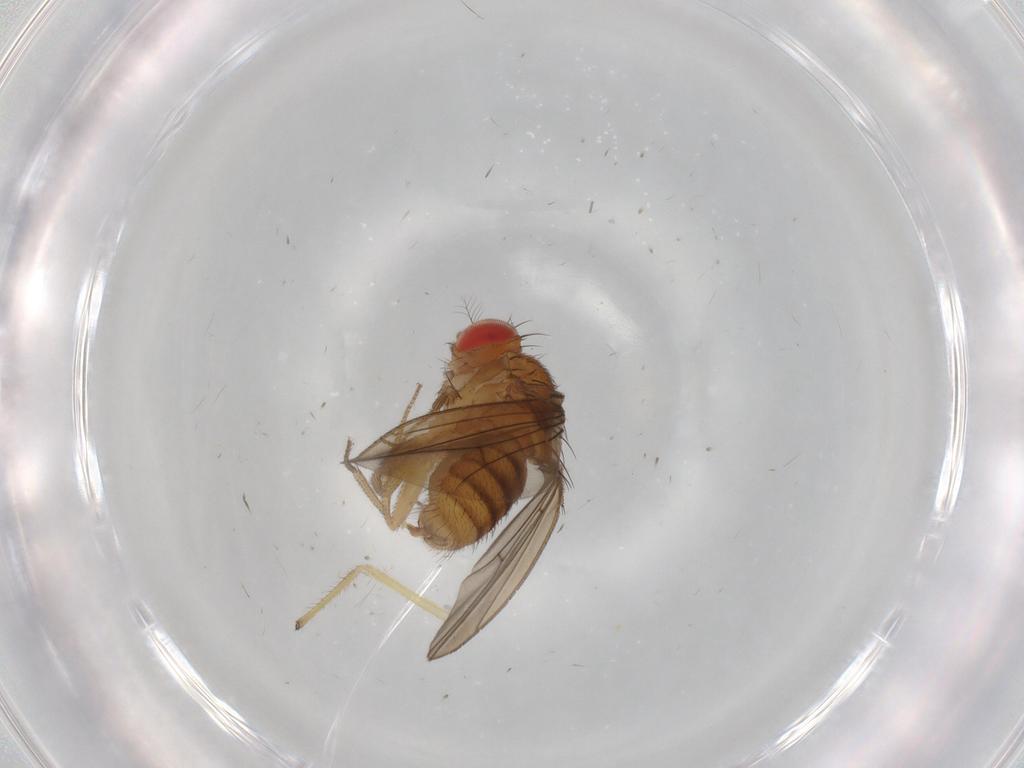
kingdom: Animalia
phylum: Arthropoda
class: Insecta
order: Diptera
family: Drosophilidae
